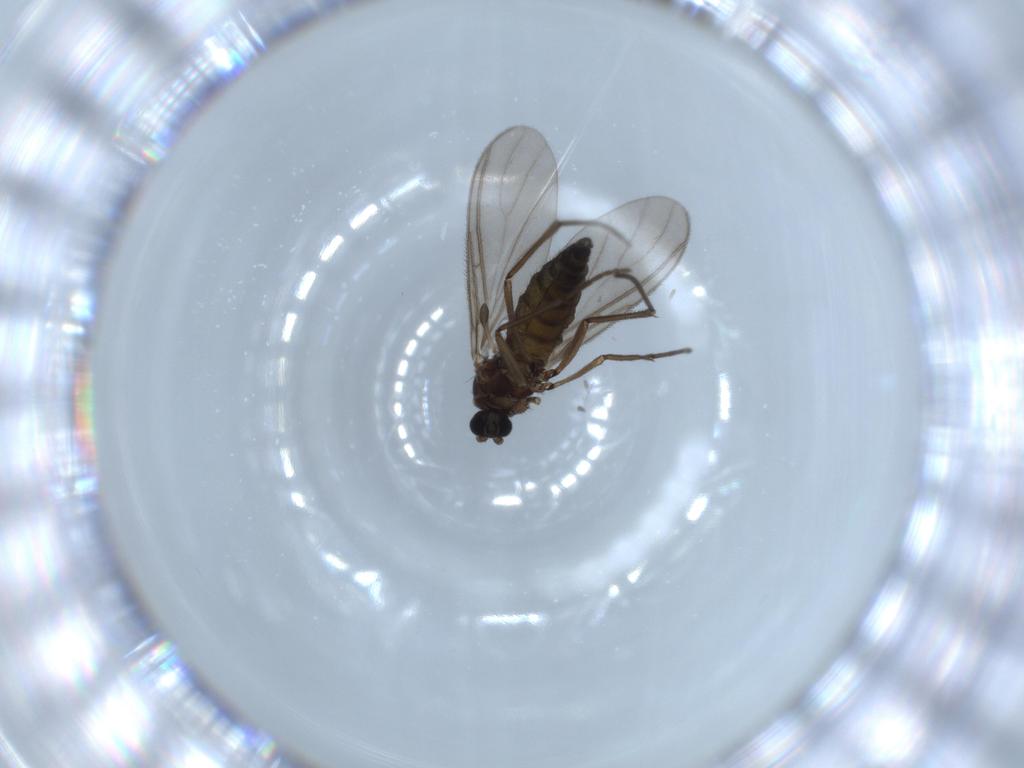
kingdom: Animalia
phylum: Arthropoda
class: Insecta
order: Diptera
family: Sciaridae
